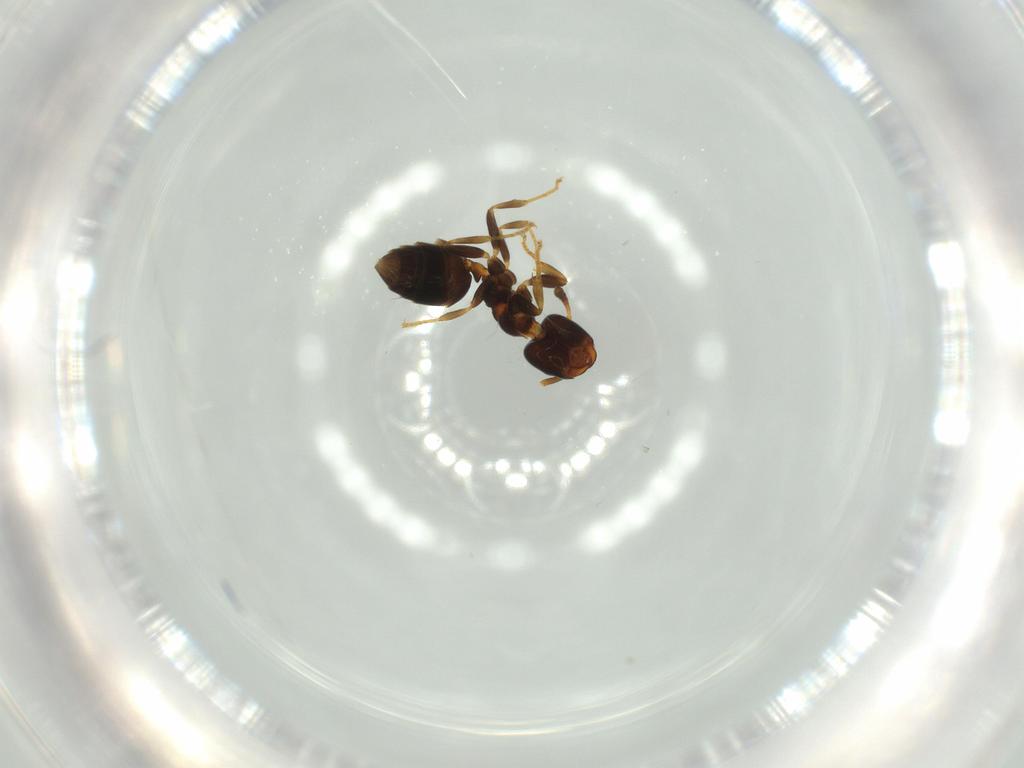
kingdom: Animalia
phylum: Arthropoda
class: Insecta
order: Hymenoptera
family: Formicidae
